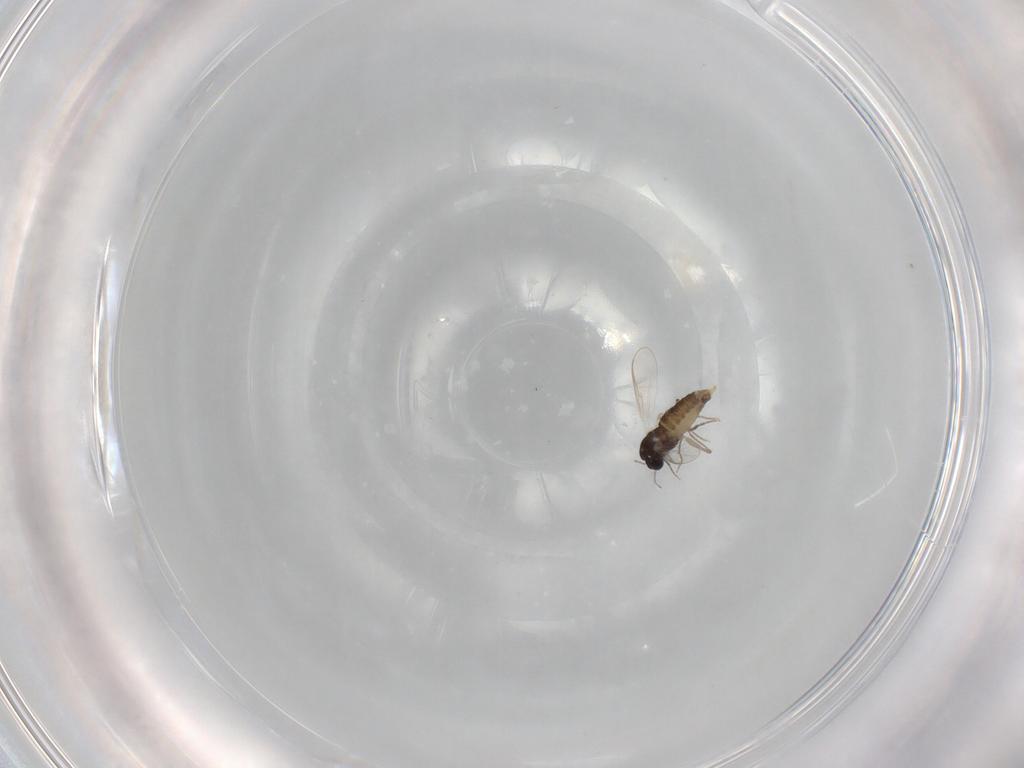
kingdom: Animalia
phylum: Arthropoda
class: Insecta
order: Diptera
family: Chironomidae
